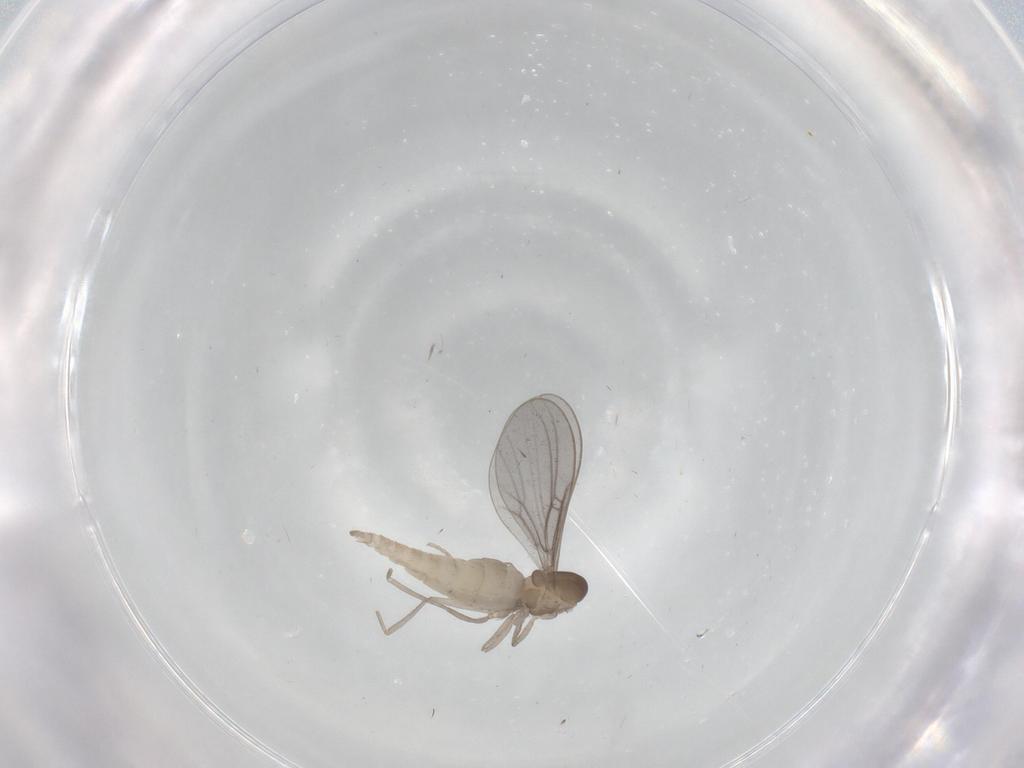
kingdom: Animalia
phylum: Arthropoda
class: Insecta
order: Diptera
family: Cecidomyiidae
